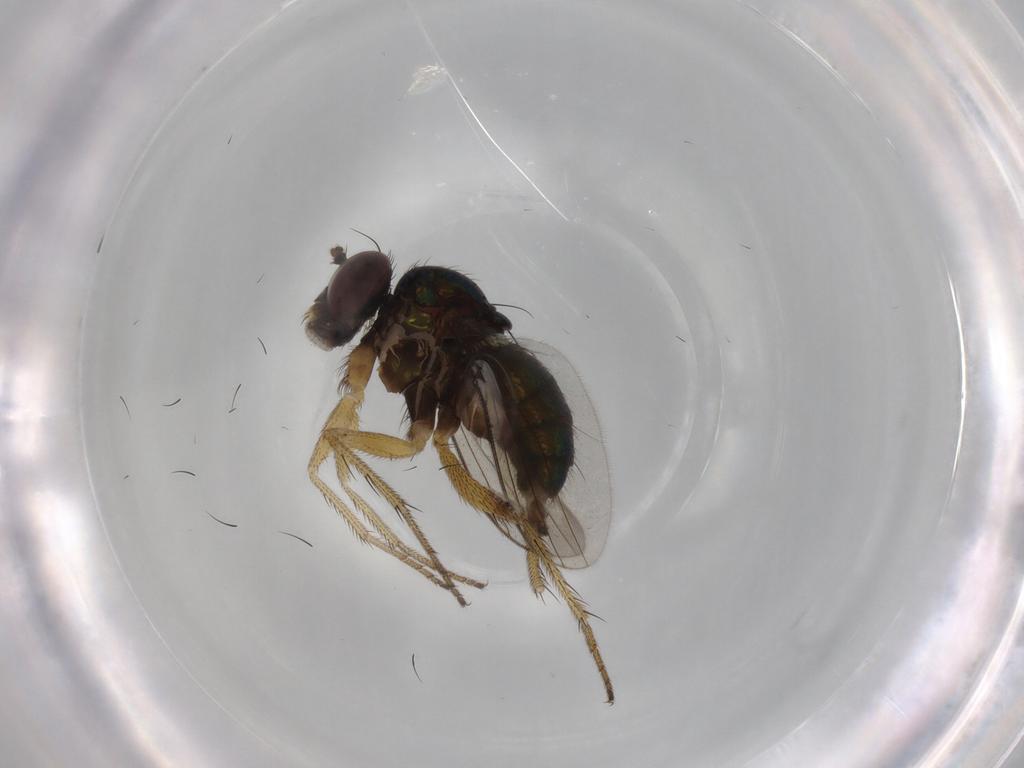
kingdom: Animalia
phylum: Arthropoda
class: Insecta
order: Diptera
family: Dolichopodidae
